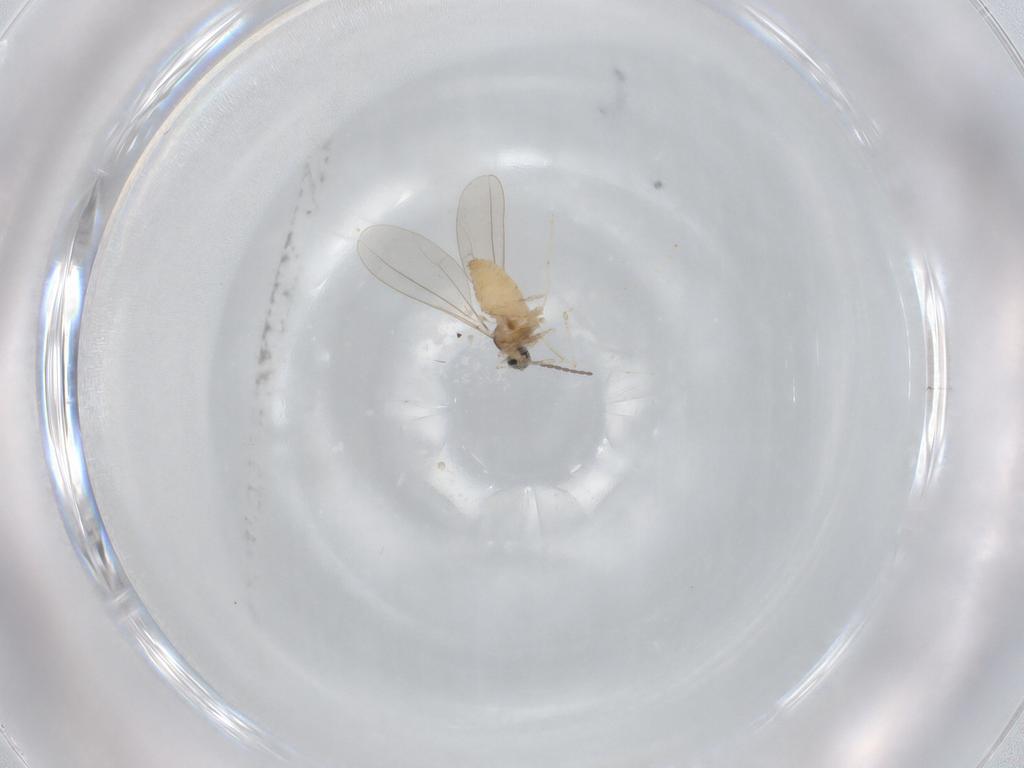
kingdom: Animalia
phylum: Arthropoda
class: Insecta
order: Diptera
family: Cecidomyiidae
